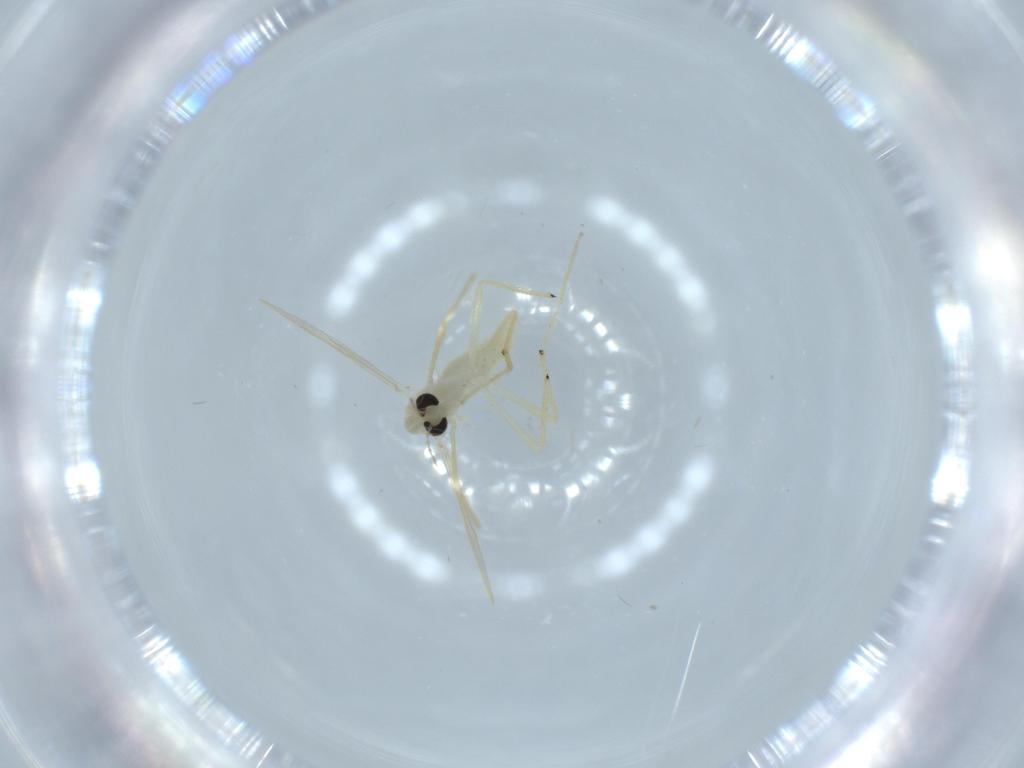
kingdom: Animalia
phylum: Arthropoda
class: Insecta
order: Diptera
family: Chironomidae
